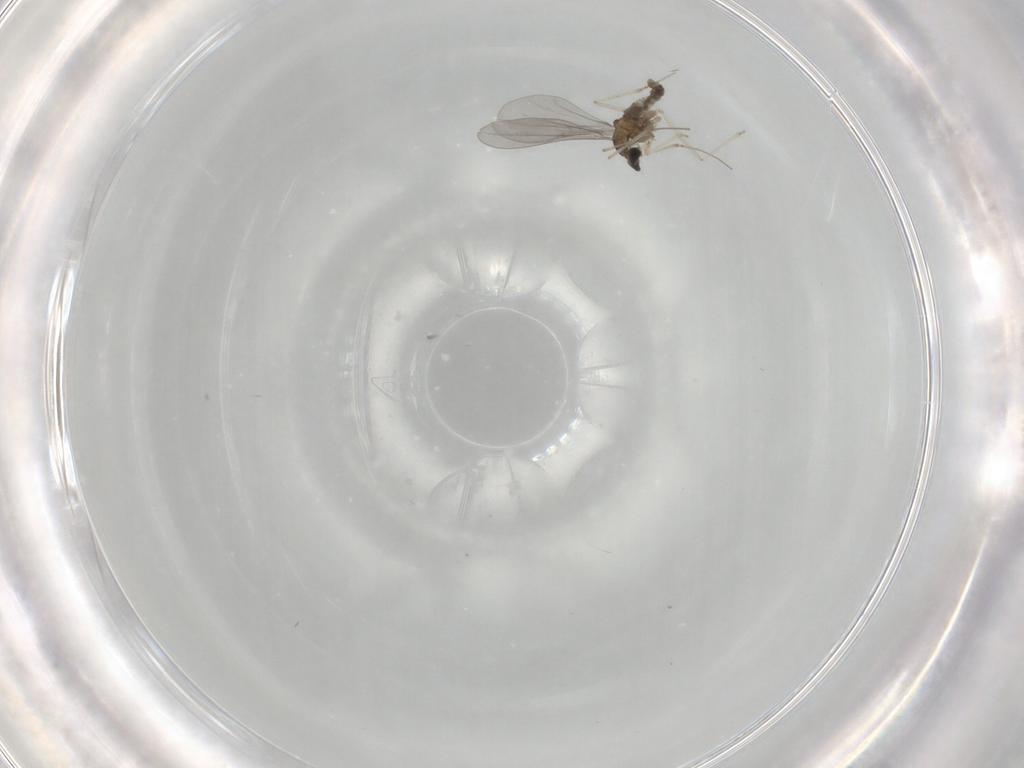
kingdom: Animalia
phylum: Arthropoda
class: Insecta
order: Diptera
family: Cecidomyiidae
